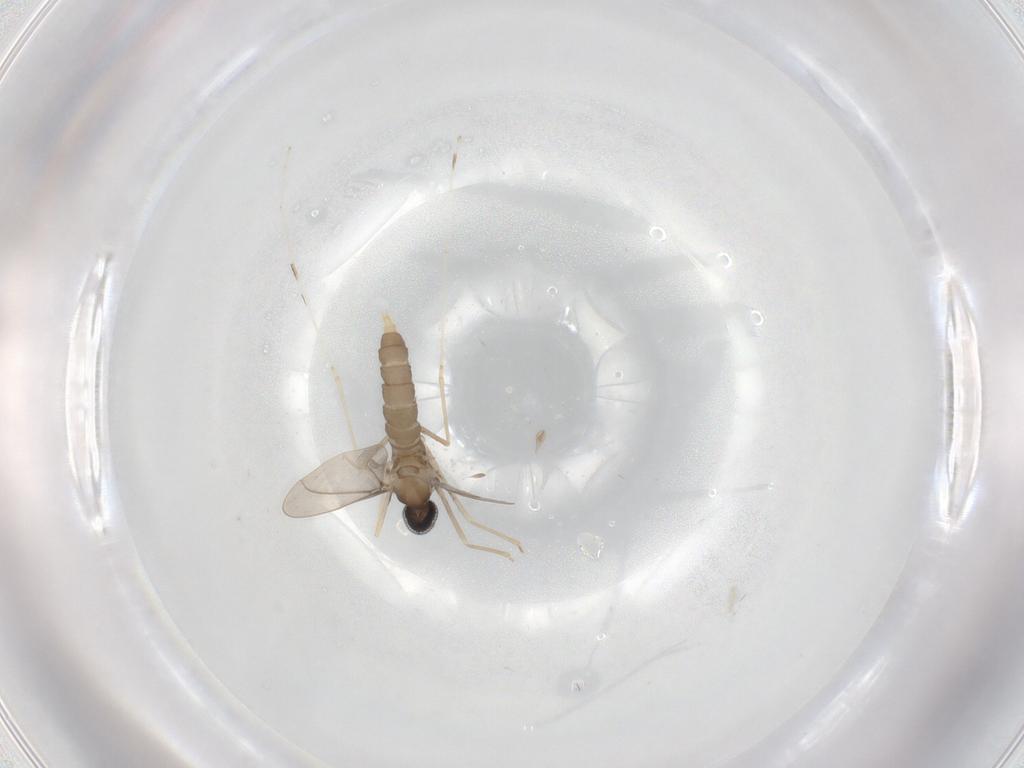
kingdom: Animalia
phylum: Arthropoda
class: Insecta
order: Diptera
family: Cecidomyiidae
